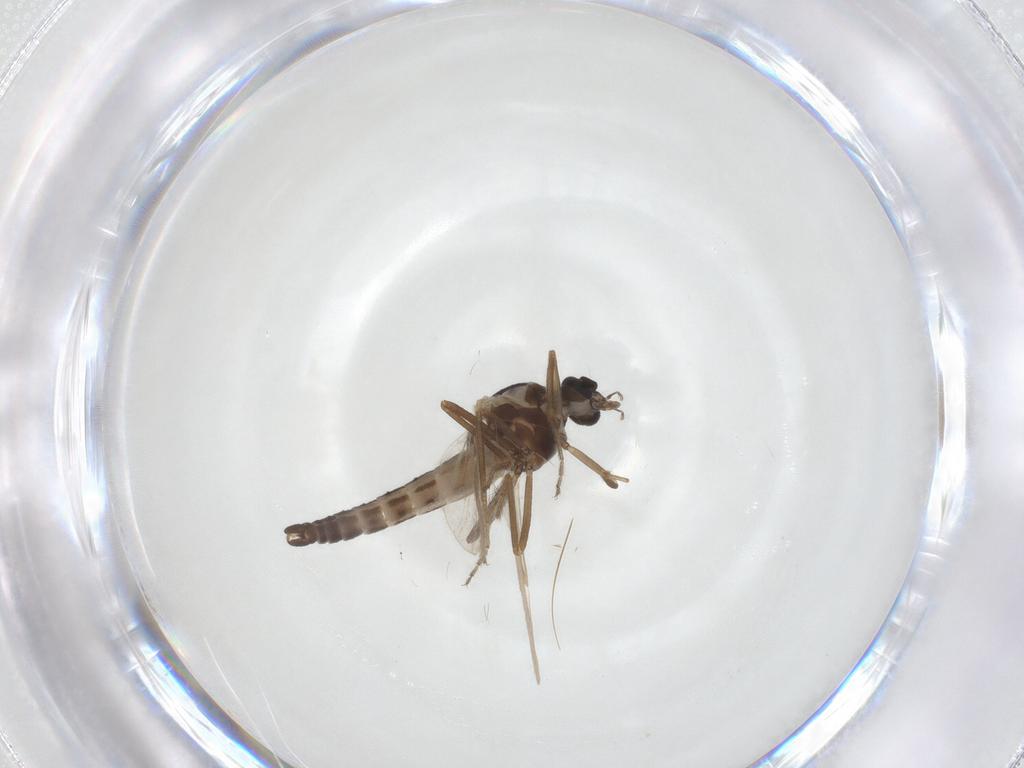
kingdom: Animalia
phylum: Arthropoda
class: Insecta
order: Diptera
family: Ceratopogonidae
